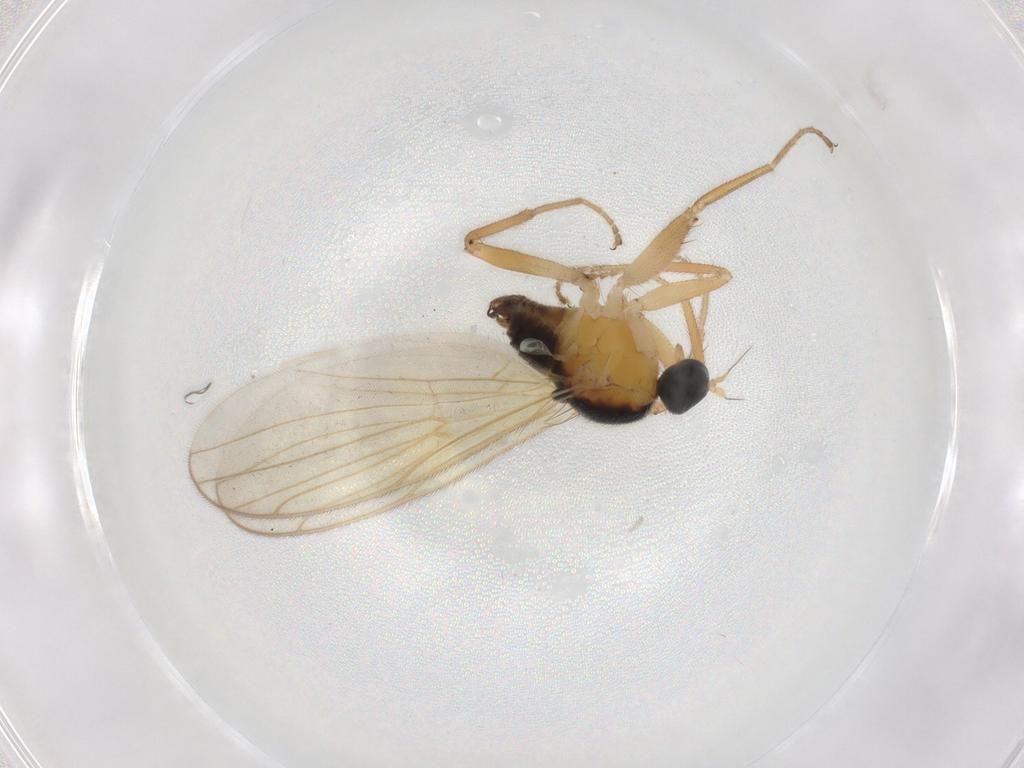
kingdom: Animalia
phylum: Arthropoda
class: Insecta
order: Diptera
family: Hybotidae
